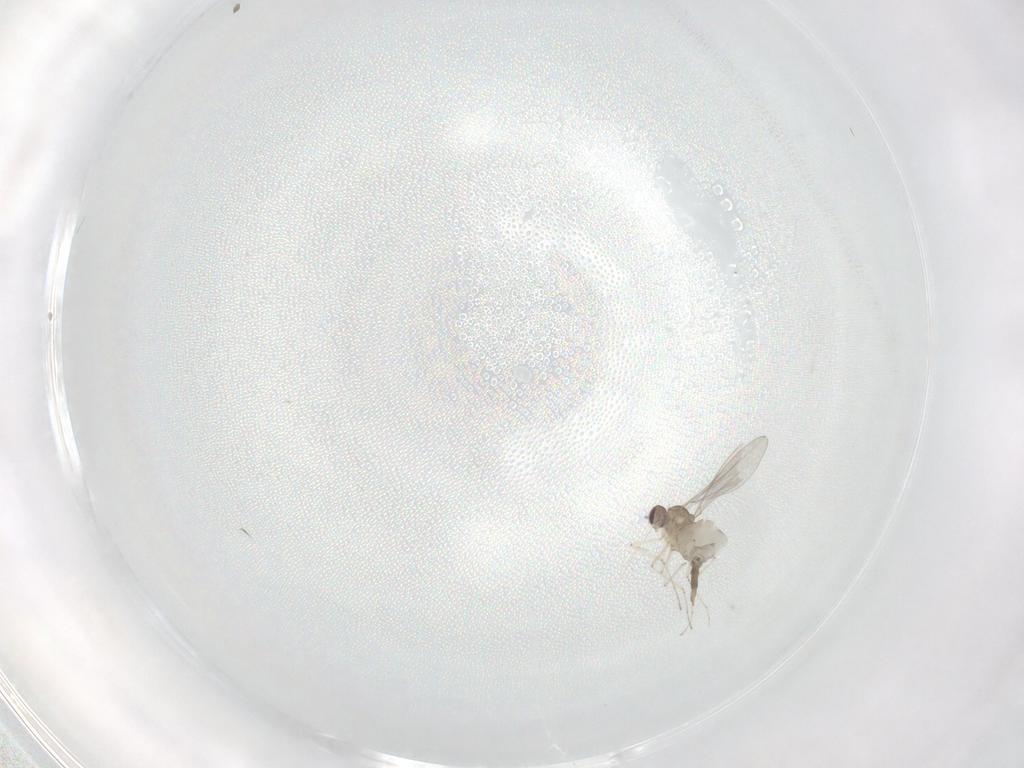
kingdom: Animalia
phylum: Arthropoda
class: Insecta
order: Diptera
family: Cecidomyiidae
